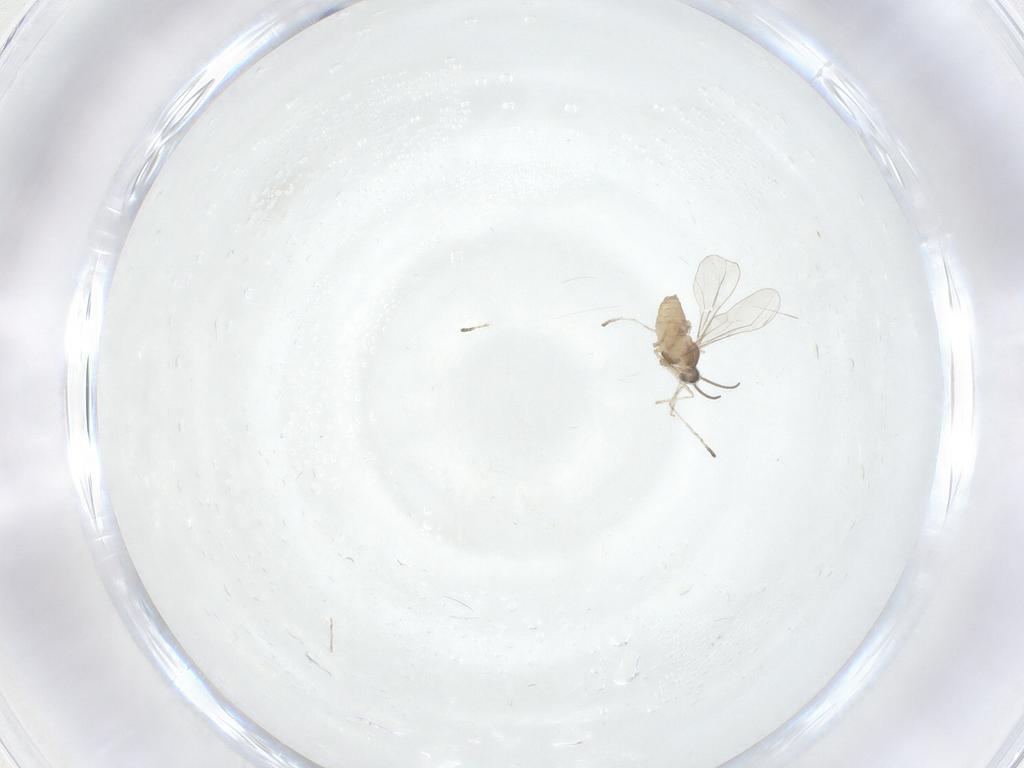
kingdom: Animalia
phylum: Arthropoda
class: Insecta
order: Diptera
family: Cecidomyiidae
